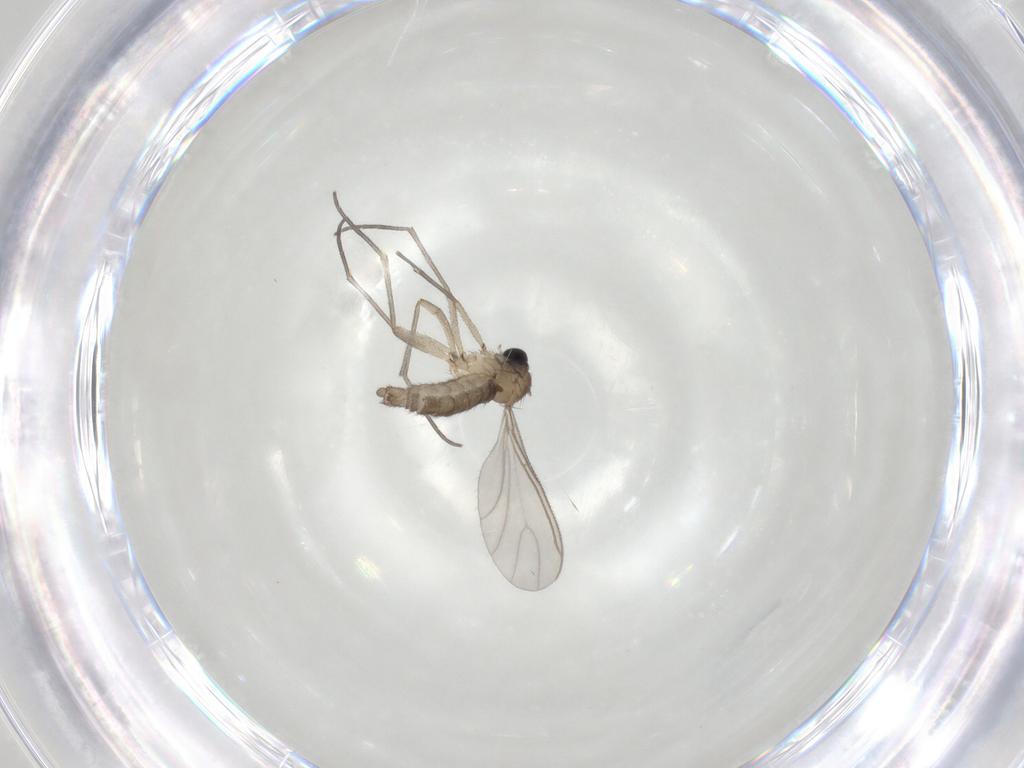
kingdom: Animalia
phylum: Arthropoda
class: Insecta
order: Diptera
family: Sciaridae
